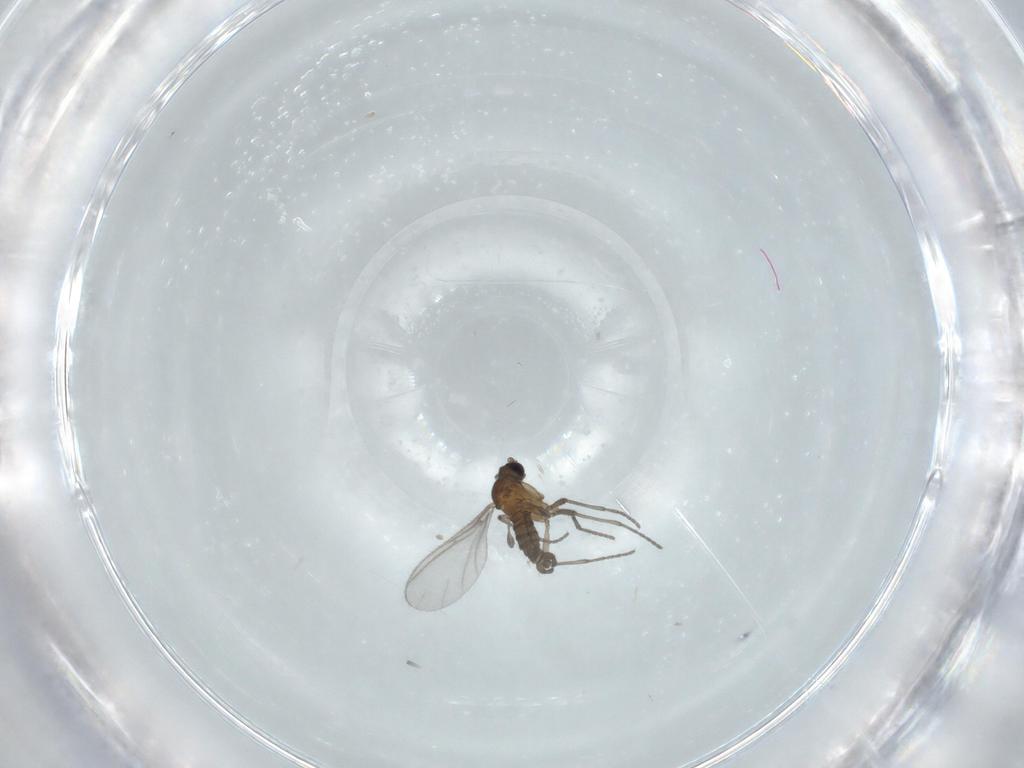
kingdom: Animalia
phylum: Arthropoda
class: Insecta
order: Diptera
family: Sciaridae
